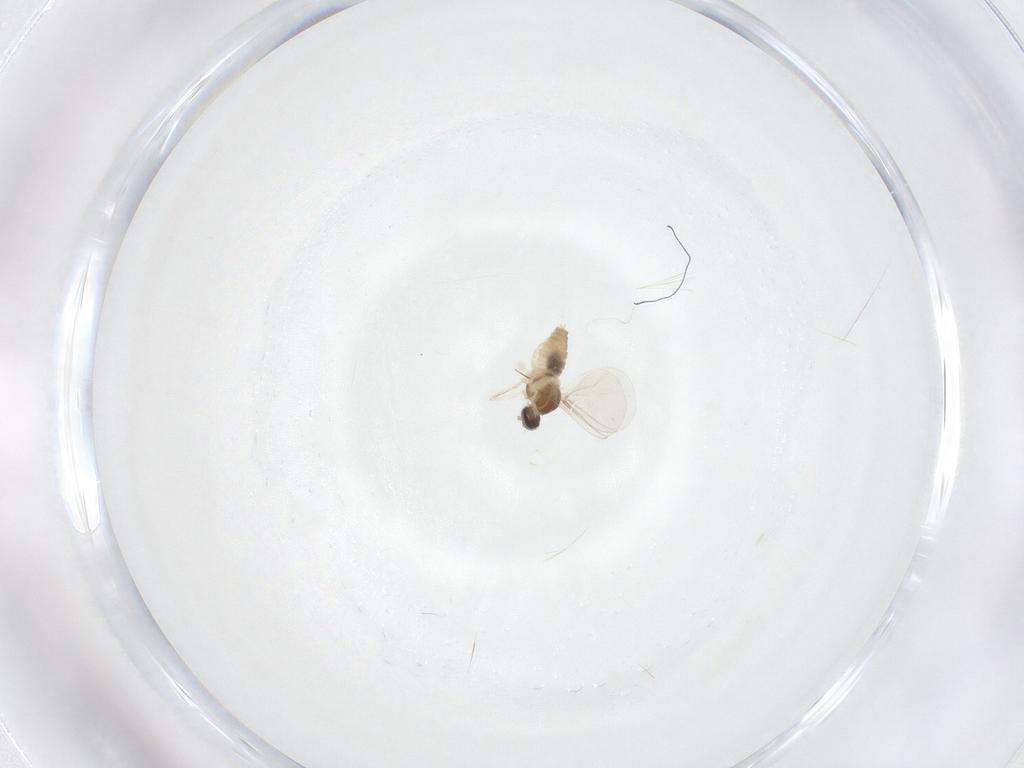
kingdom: Animalia
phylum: Arthropoda
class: Insecta
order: Diptera
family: Cecidomyiidae
